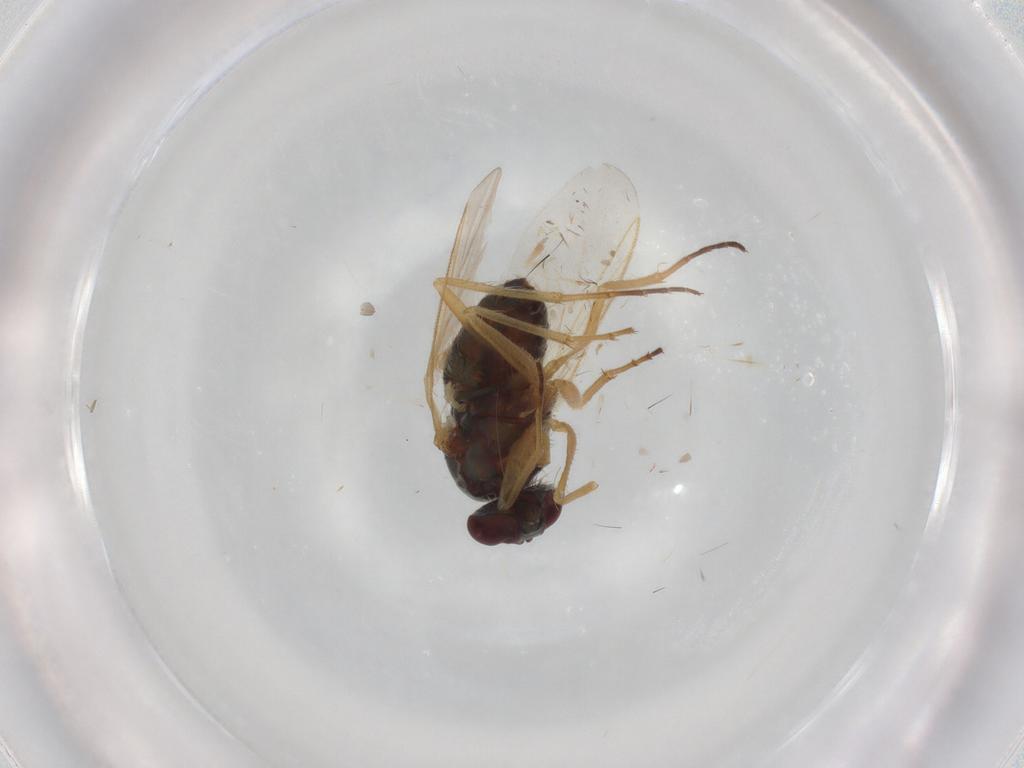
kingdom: Animalia
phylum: Arthropoda
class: Insecta
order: Diptera
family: Dolichopodidae
